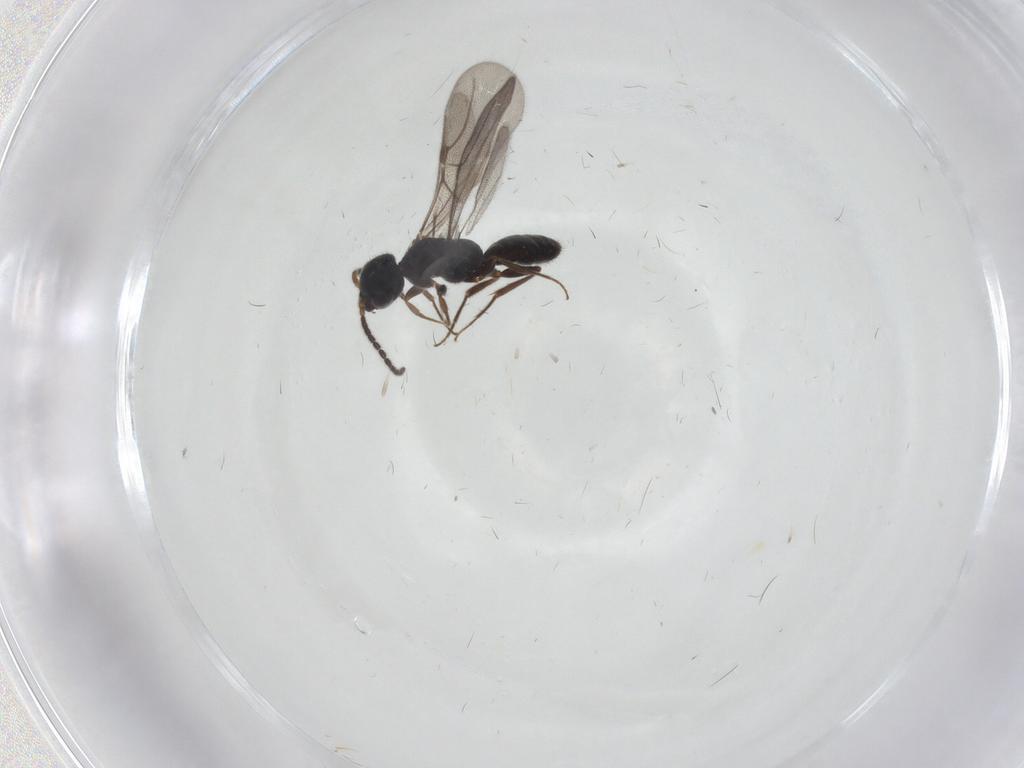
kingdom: Animalia
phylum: Arthropoda
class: Insecta
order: Hymenoptera
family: Bethylidae
